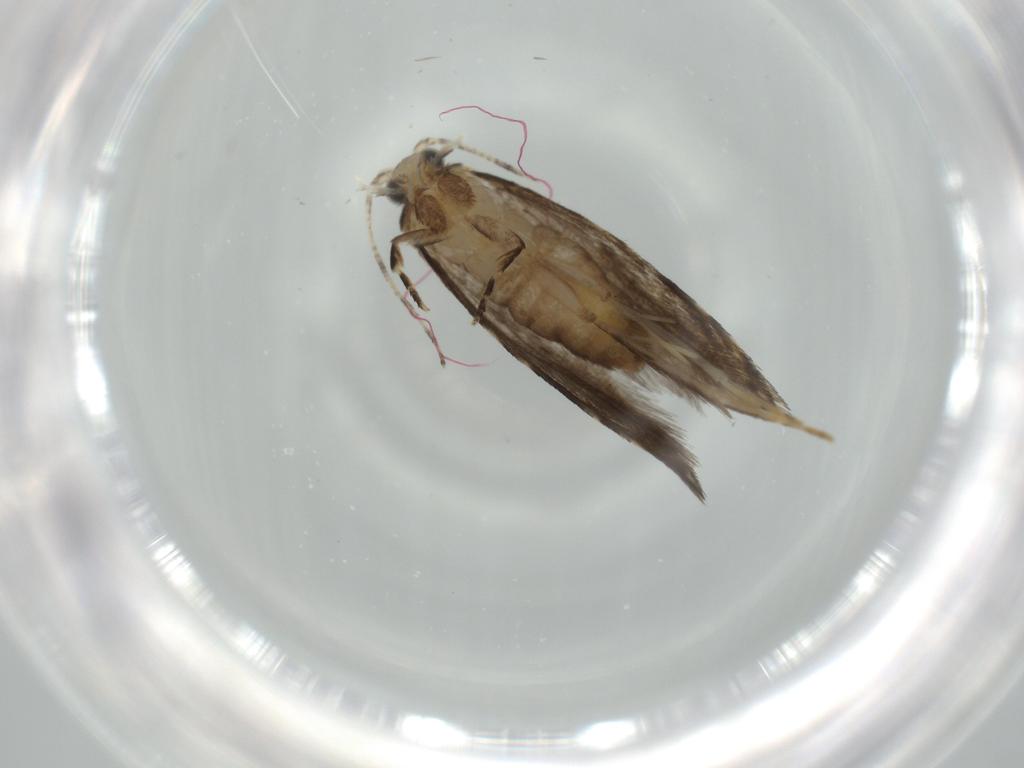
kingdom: Animalia
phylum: Arthropoda
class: Insecta
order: Lepidoptera
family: Tineidae
